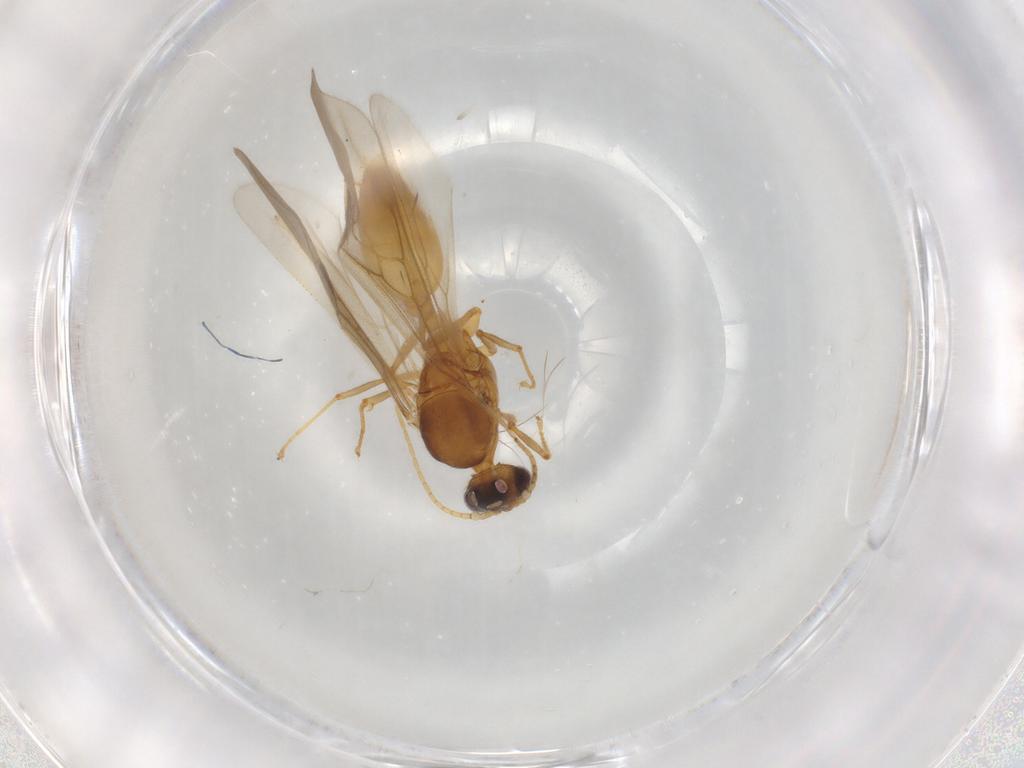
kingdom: Animalia
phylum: Arthropoda
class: Insecta
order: Hymenoptera
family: Formicidae
